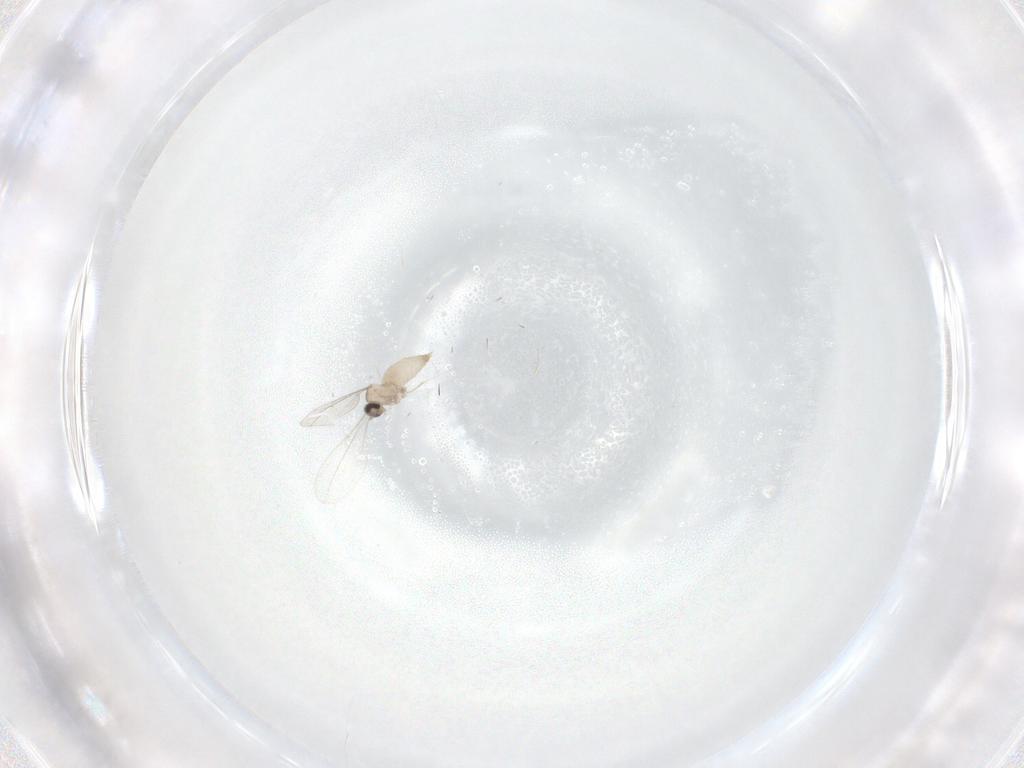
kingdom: Animalia
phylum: Arthropoda
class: Insecta
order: Diptera
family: Cecidomyiidae
